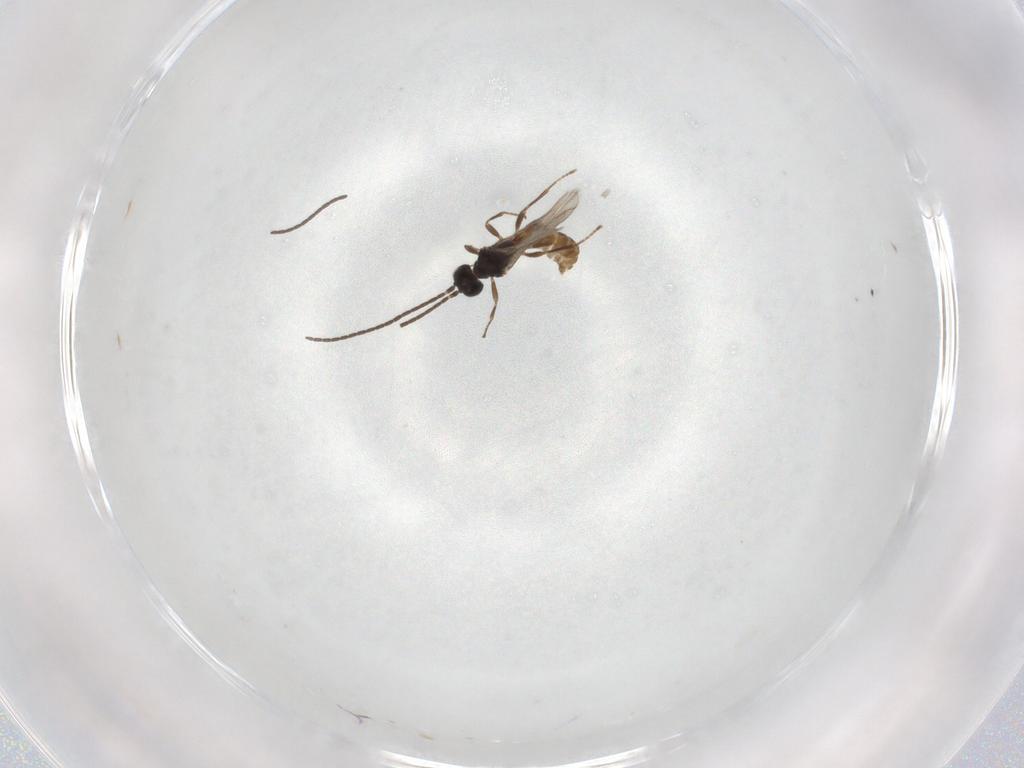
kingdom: Animalia
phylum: Arthropoda
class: Insecta
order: Hymenoptera
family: Braconidae
